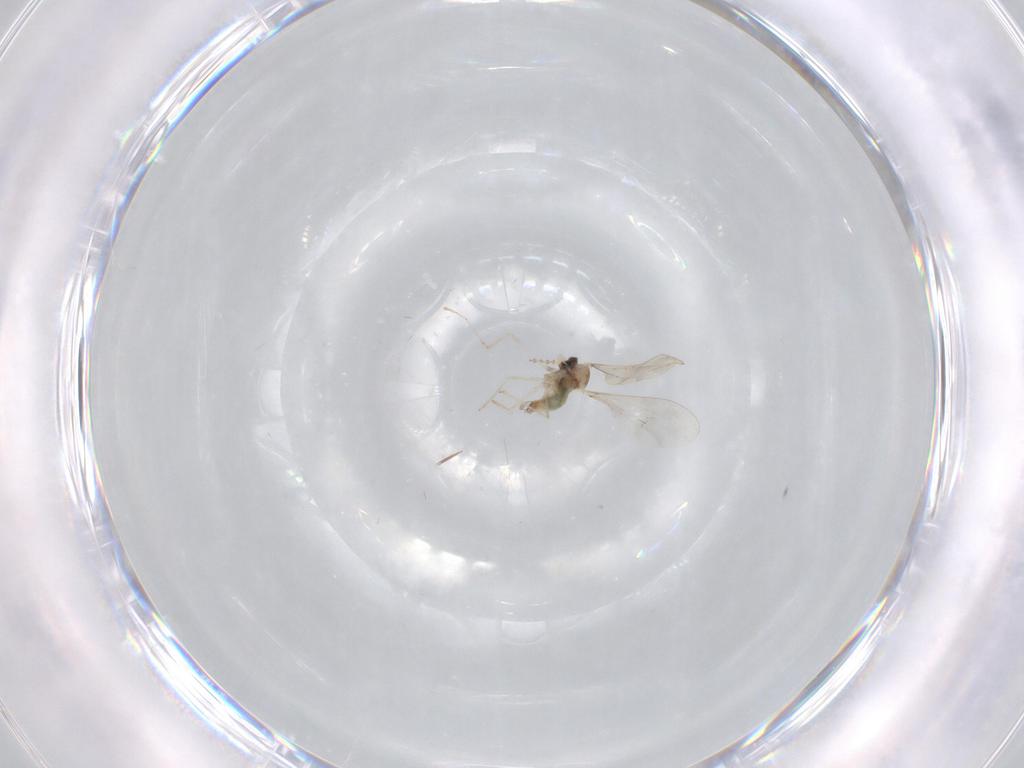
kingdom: Animalia
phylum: Arthropoda
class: Insecta
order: Diptera
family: Sciaridae
